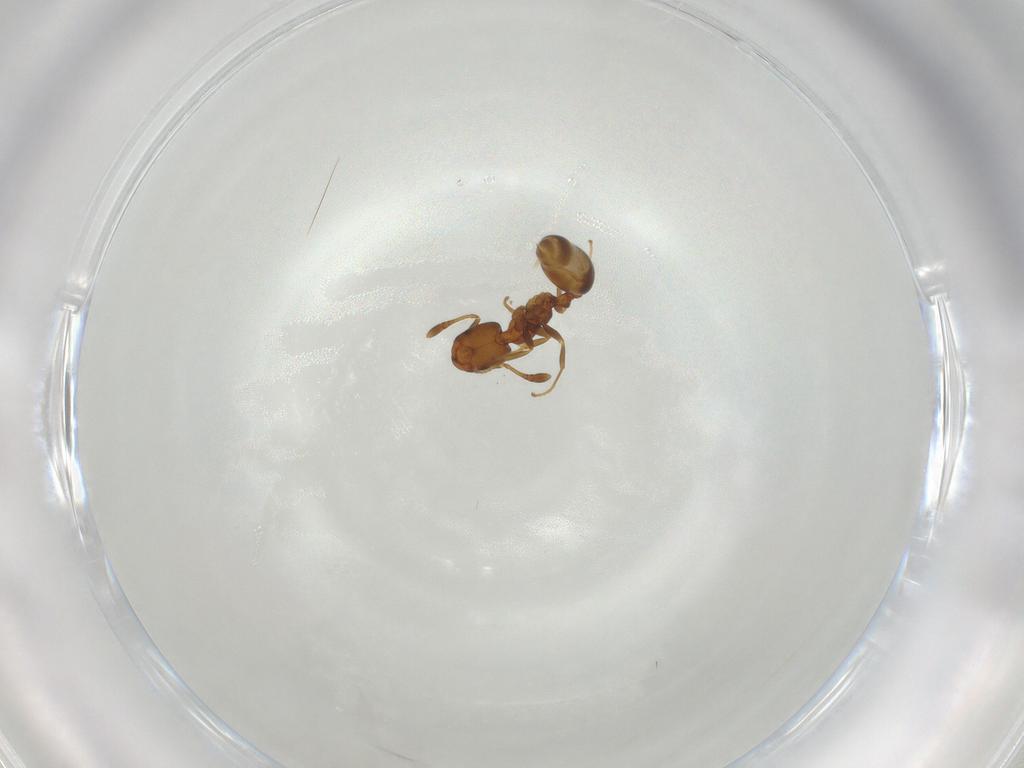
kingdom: Animalia
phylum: Arthropoda
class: Insecta
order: Hymenoptera
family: Formicidae
